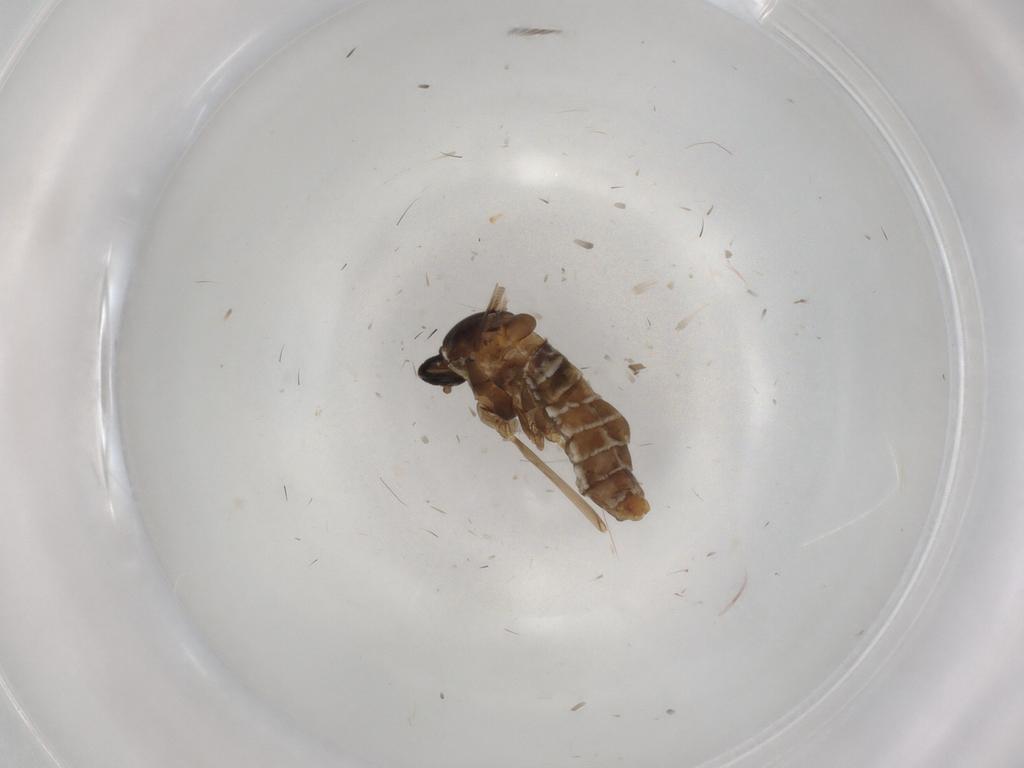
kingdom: Animalia
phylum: Arthropoda
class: Insecta
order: Diptera
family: Cecidomyiidae
